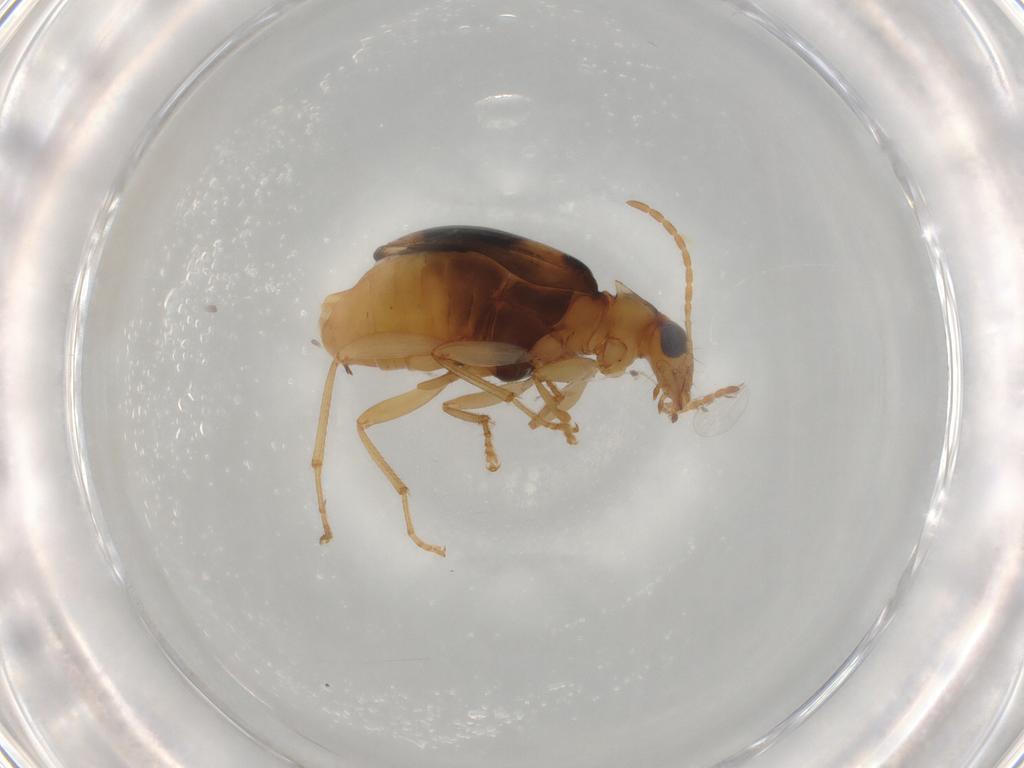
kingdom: Animalia
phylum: Arthropoda
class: Insecta
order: Coleoptera
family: Carabidae
